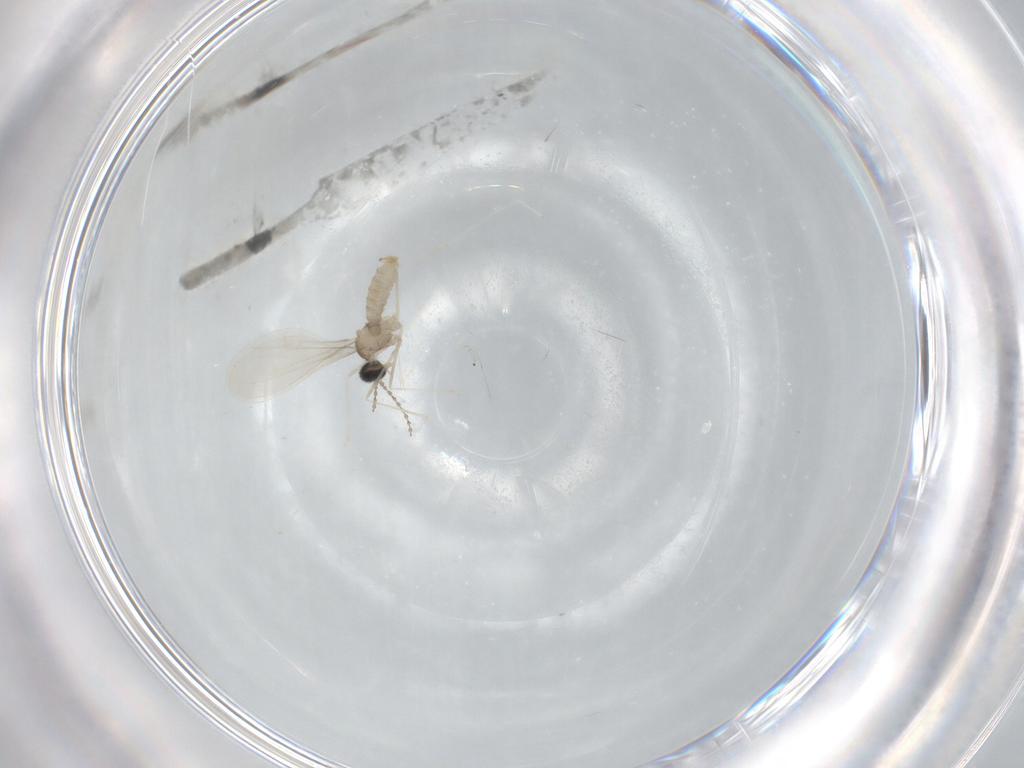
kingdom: Animalia
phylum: Arthropoda
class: Insecta
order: Diptera
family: Cecidomyiidae
